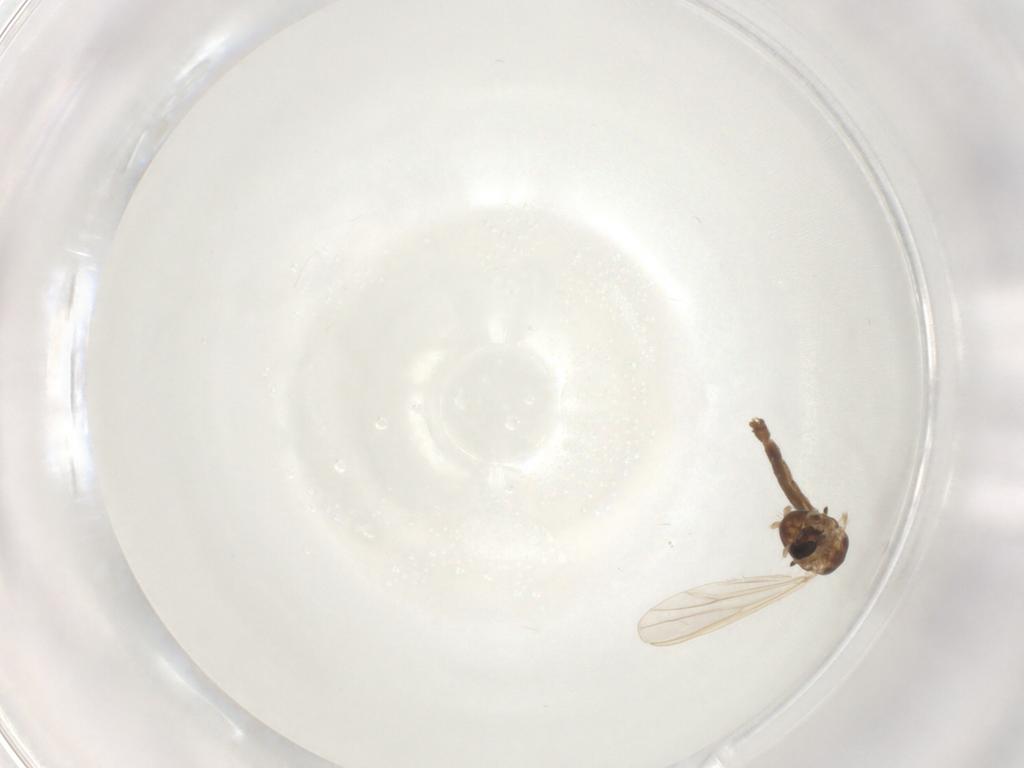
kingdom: Animalia
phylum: Arthropoda
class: Insecta
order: Diptera
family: Chironomidae
